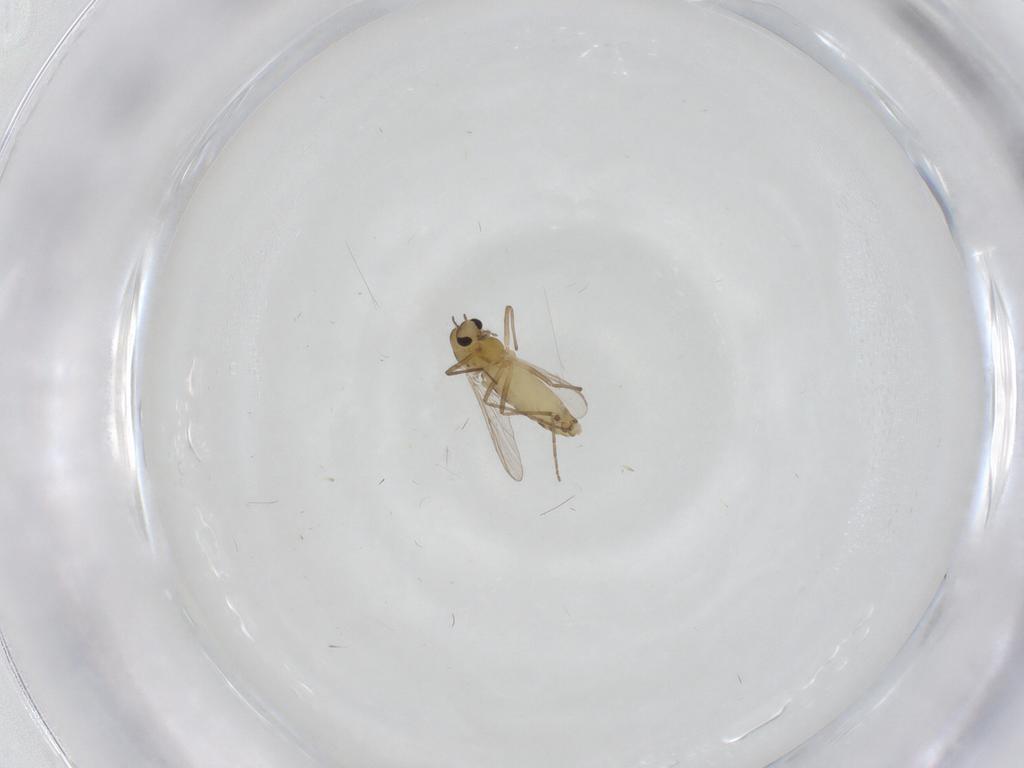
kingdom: Animalia
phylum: Arthropoda
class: Insecta
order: Diptera
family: Chironomidae
